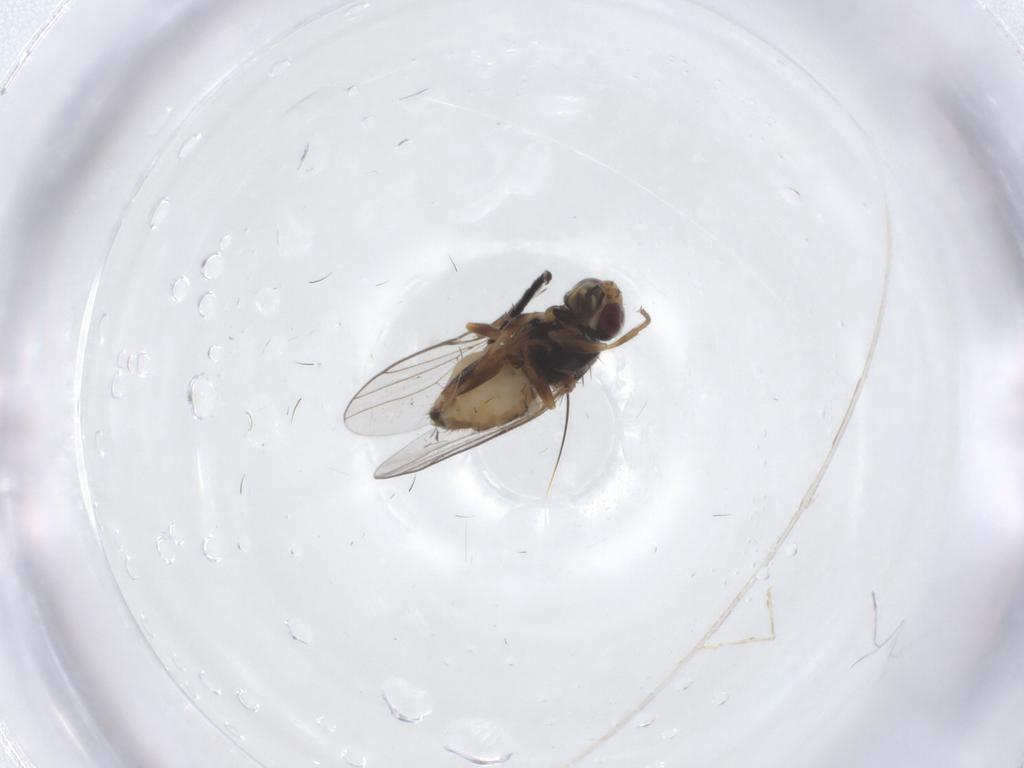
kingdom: Animalia
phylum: Arthropoda
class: Insecta
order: Diptera
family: Chloropidae
